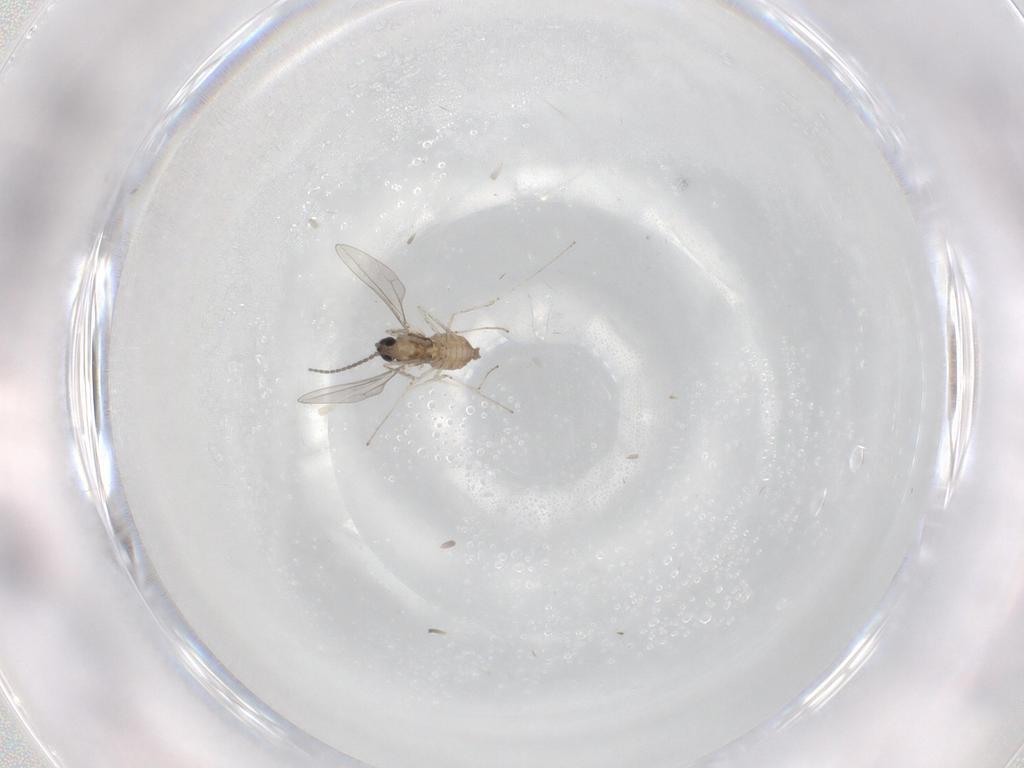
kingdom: Animalia
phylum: Arthropoda
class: Insecta
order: Diptera
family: Cecidomyiidae
